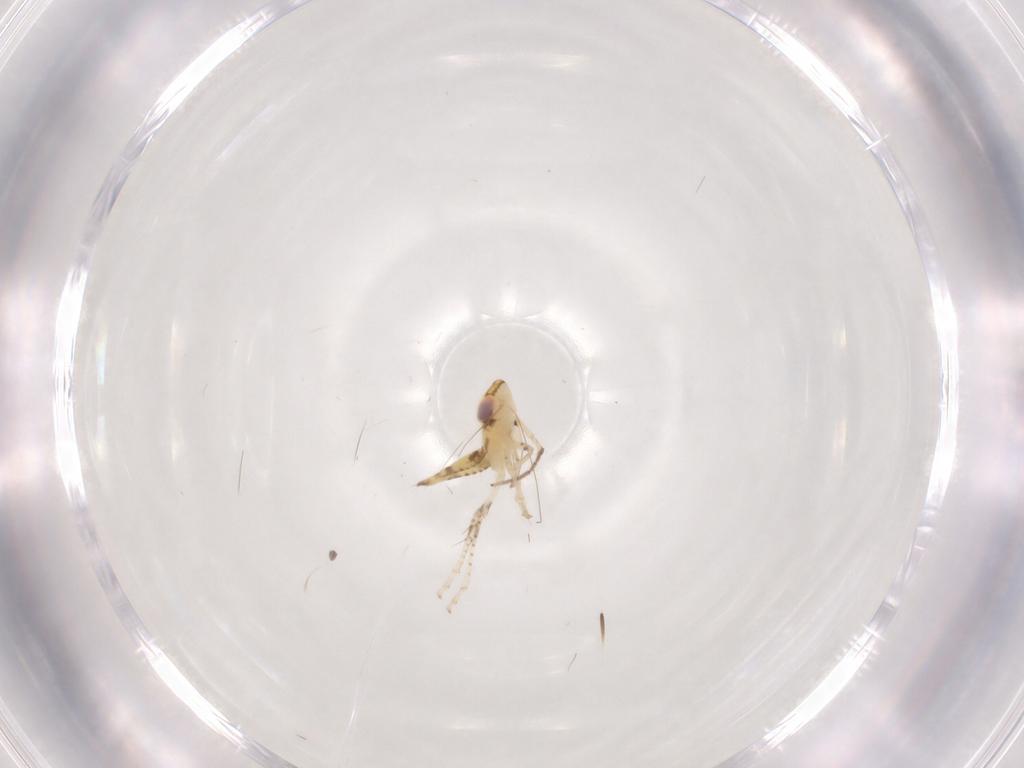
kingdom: Animalia
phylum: Arthropoda
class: Insecta
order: Hemiptera
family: Cicadellidae
